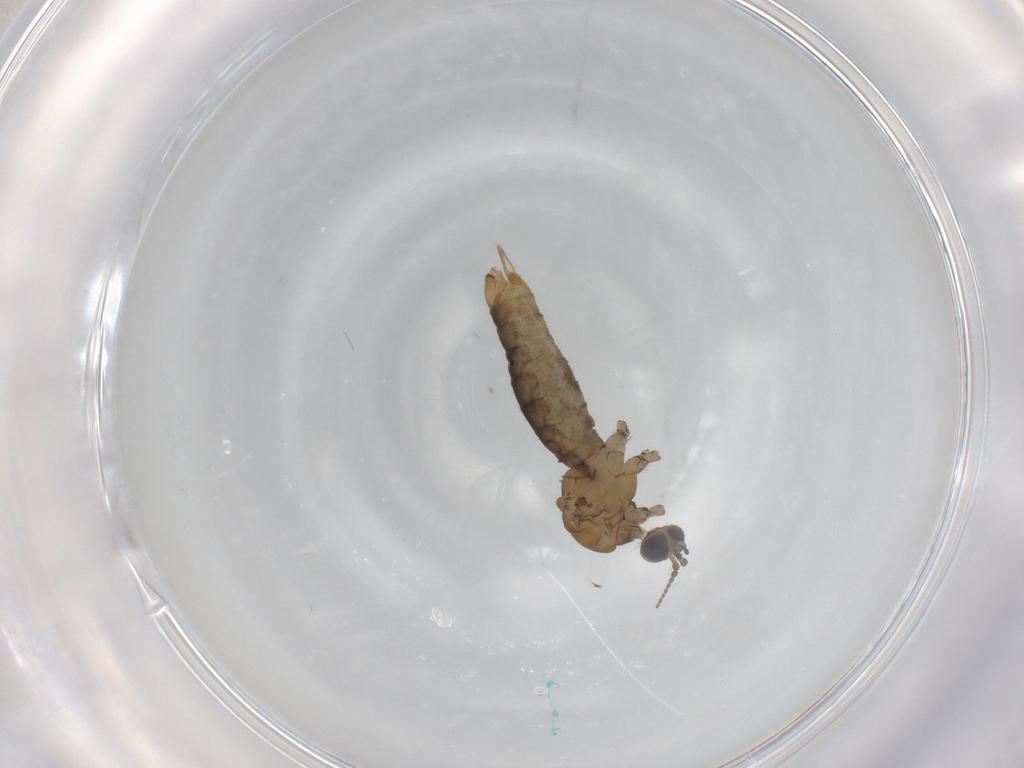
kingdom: Animalia
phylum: Arthropoda
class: Insecta
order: Diptera
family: Limoniidae
